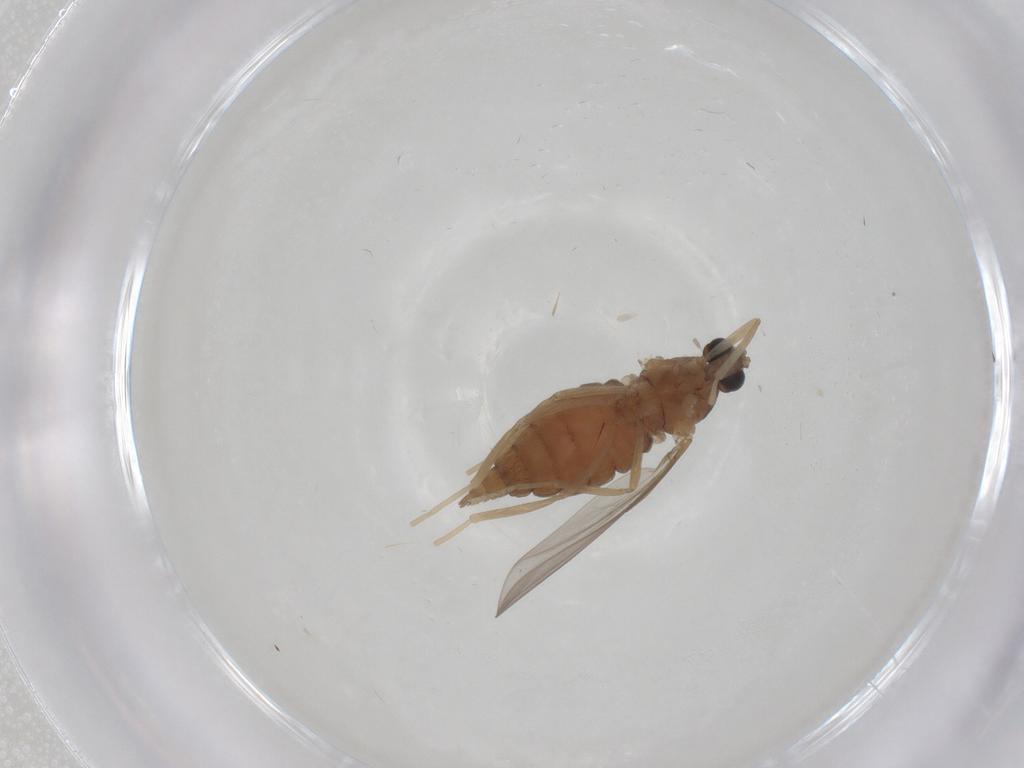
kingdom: Animalia
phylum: Arthropoda
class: Insecta
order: Diptera
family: Cecidomyiidae
